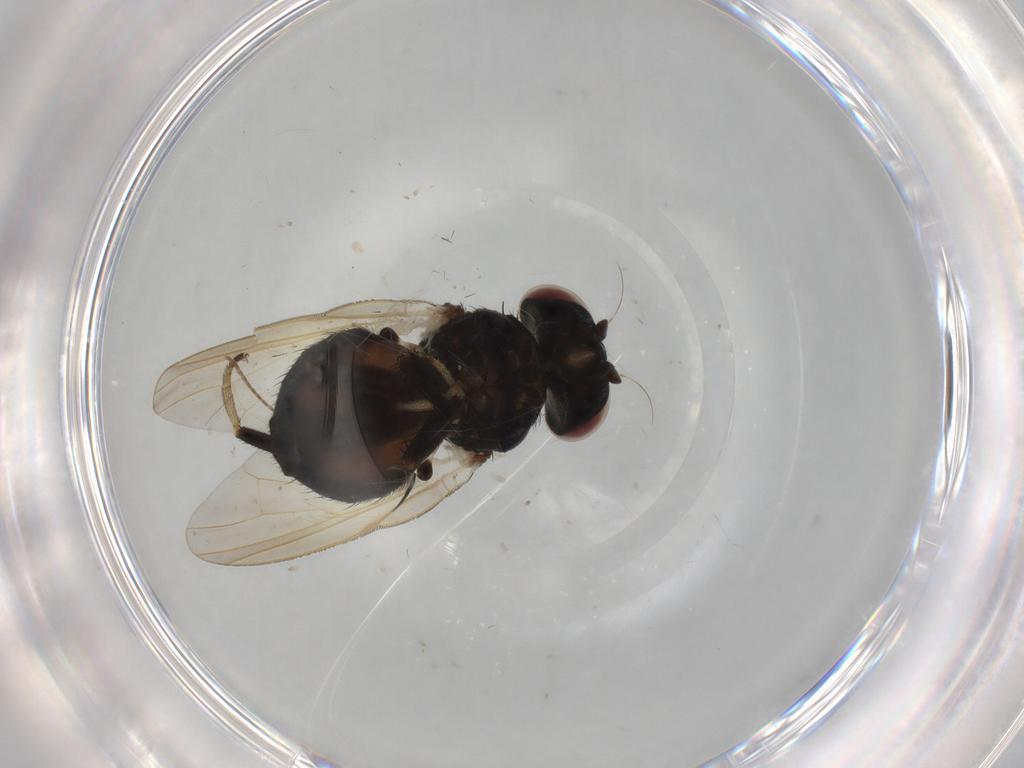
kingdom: Animalia
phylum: Arthropoda
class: Insecta
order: Diptera
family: Lonchaeidae
